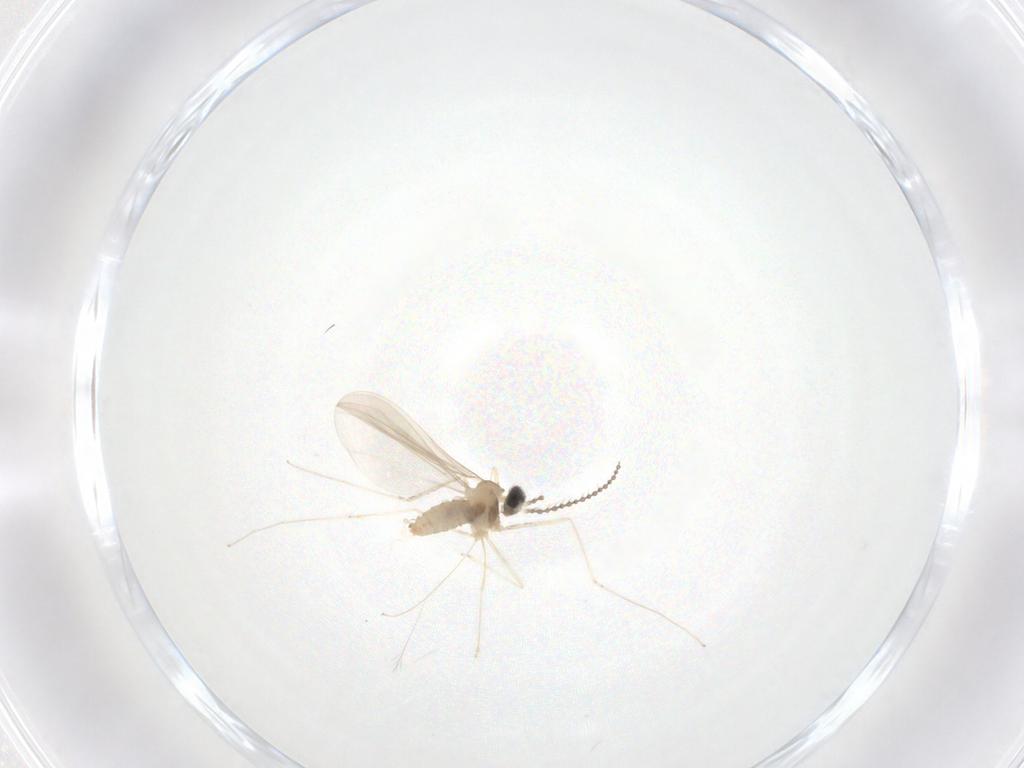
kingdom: Animalia
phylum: Arthropoda
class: Insecta
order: Diptera
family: Cecidomyiidae
